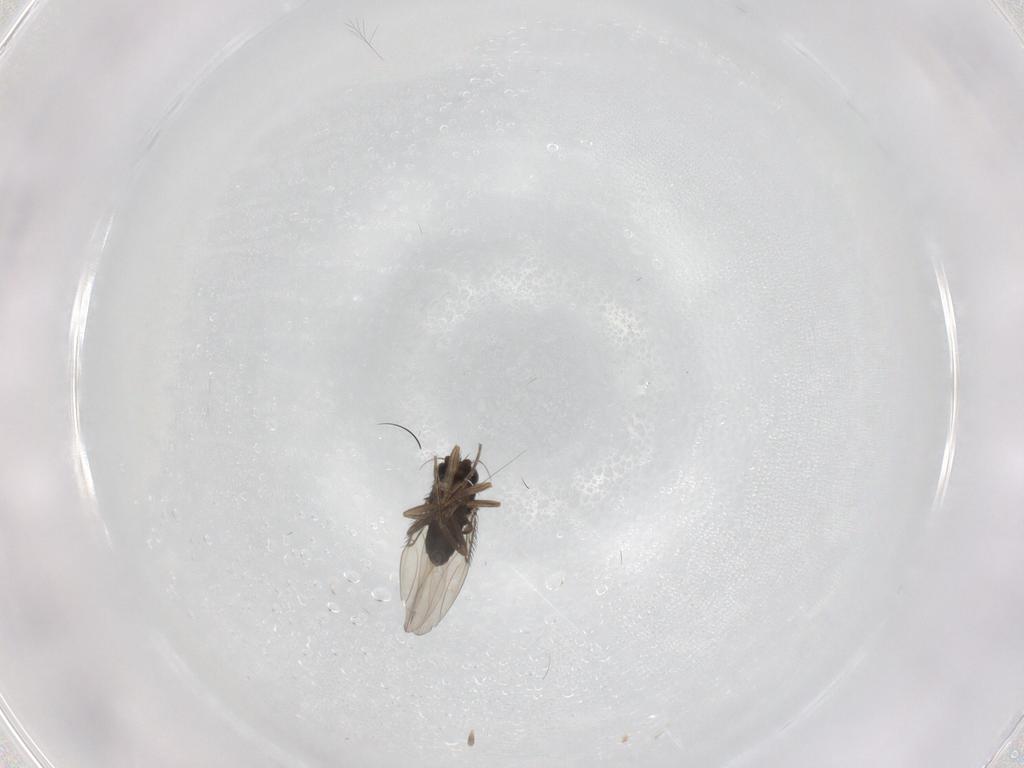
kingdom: Animalia
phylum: Arthropoda
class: Insecta
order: Diptera
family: Phoridae
